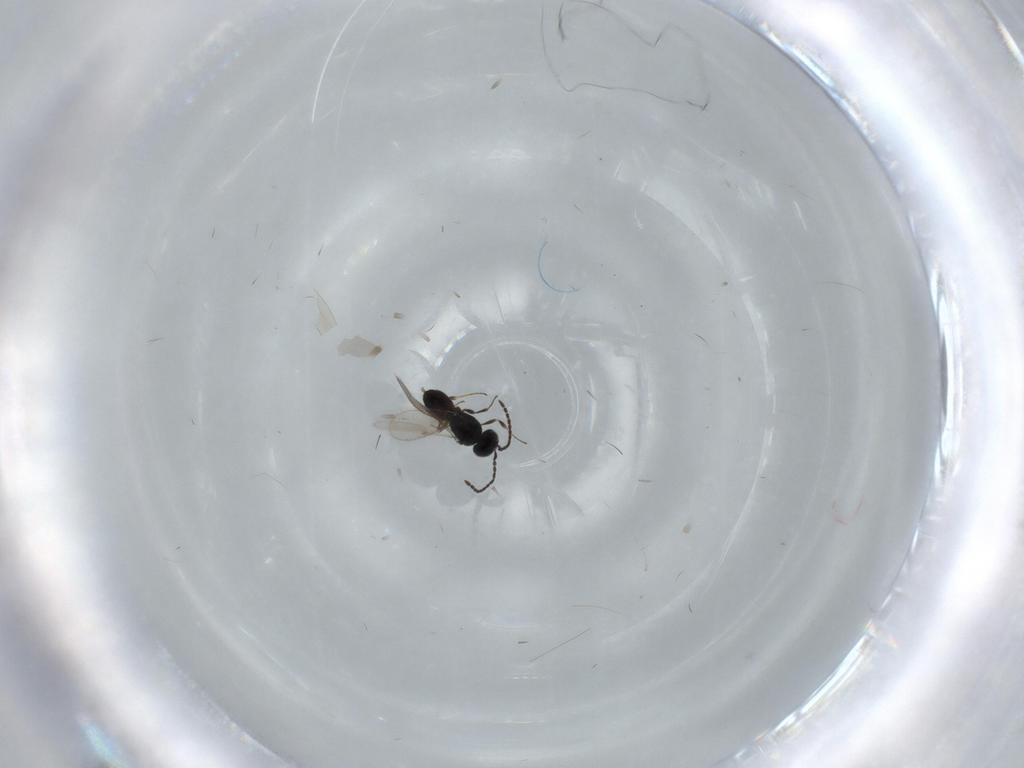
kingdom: Animalia
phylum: Arthropoda
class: Insecta
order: Hymenoptera
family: Scelionidae
